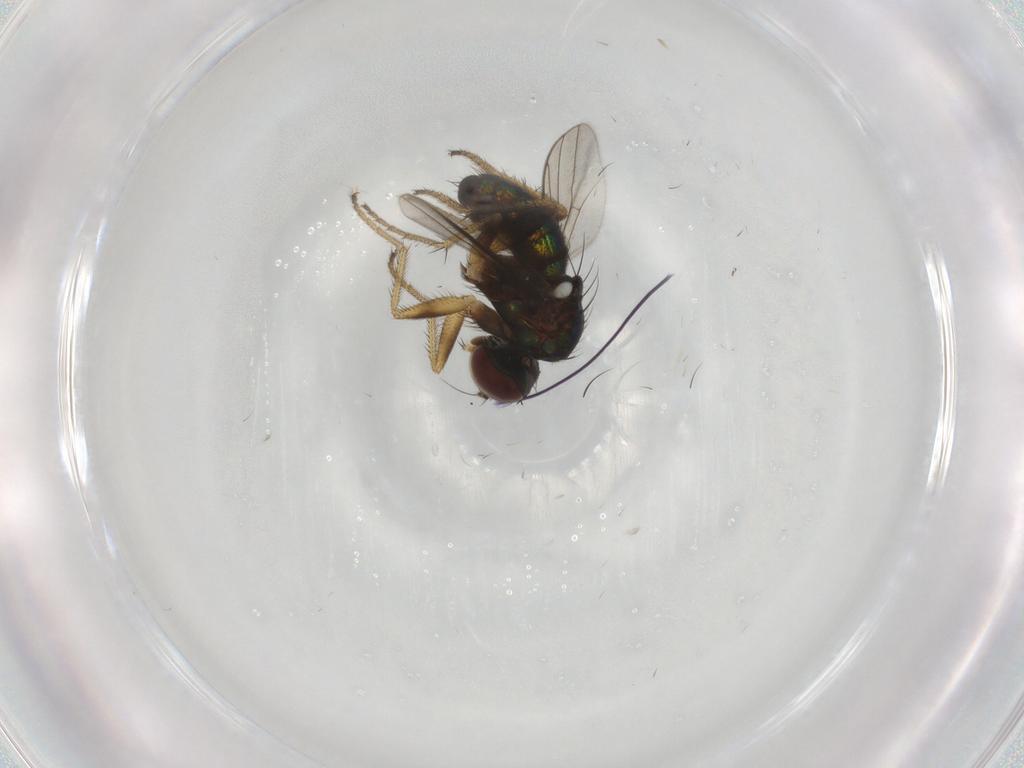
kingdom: Animalia
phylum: Arthropoda
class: Insecta
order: Diptera
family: Dolichopodidae
